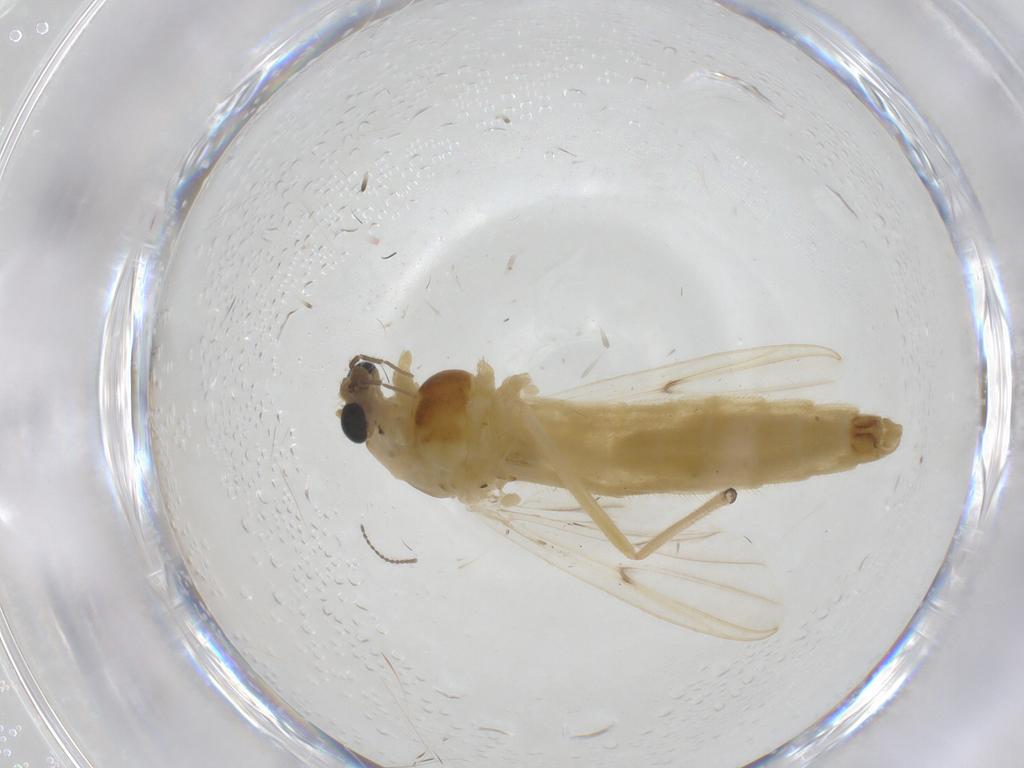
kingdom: Animalia
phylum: Arthropoda
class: Insecta
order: Diptera
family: Chironomidae
